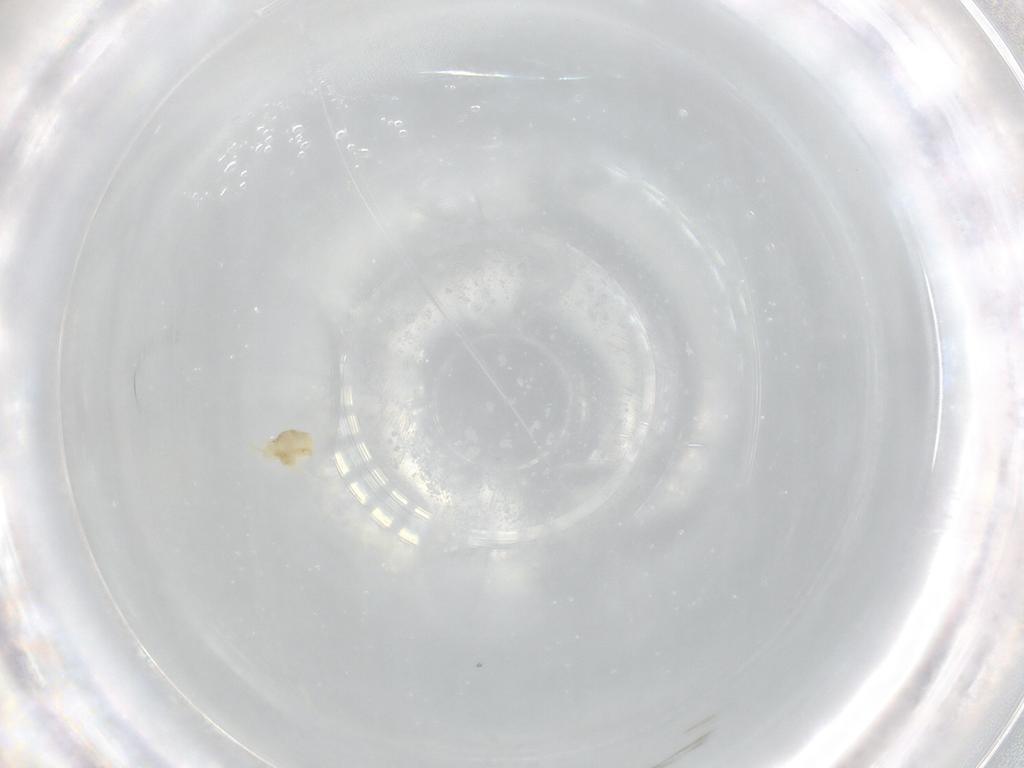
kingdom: Animalia
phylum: Arthropoda
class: Arachnida
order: Trombidiformes
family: Eupodidae
